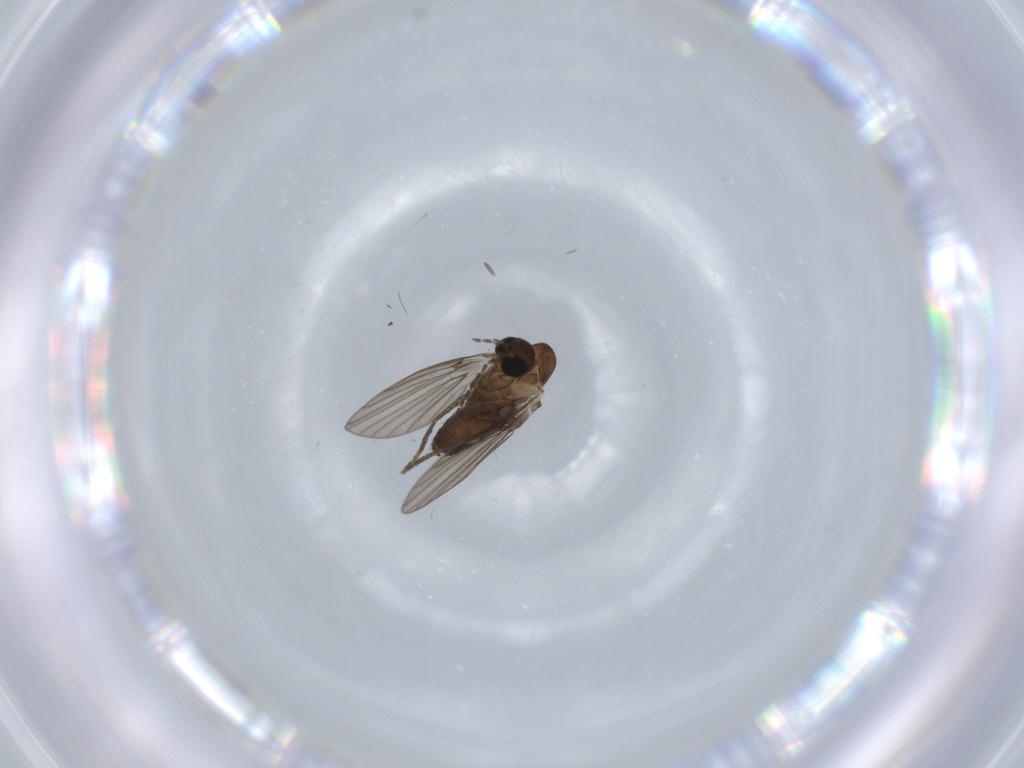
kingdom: Animalia
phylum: Arthropoda
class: Insecta
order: Diptera
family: Psychodidae
